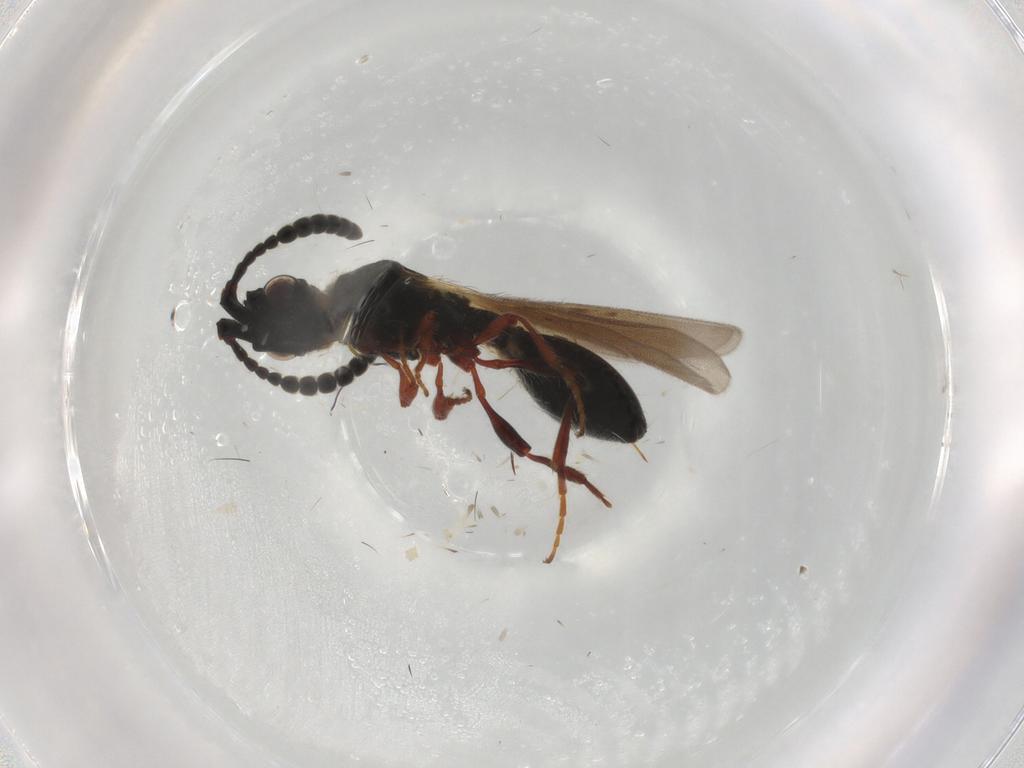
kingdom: Animalia
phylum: Arthropoda
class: Insecta
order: Hymenoptera
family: Diapriidae
